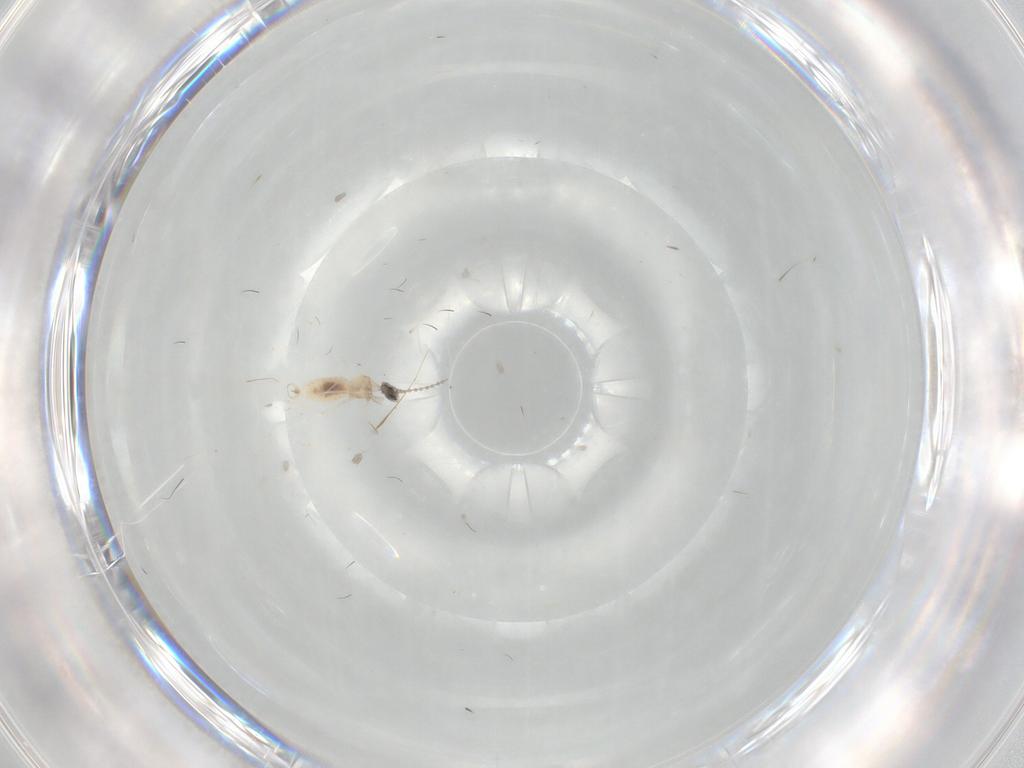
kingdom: Animalia
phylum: Arthropoda
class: Insecta
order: Diptera
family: Cecidomyiidae
